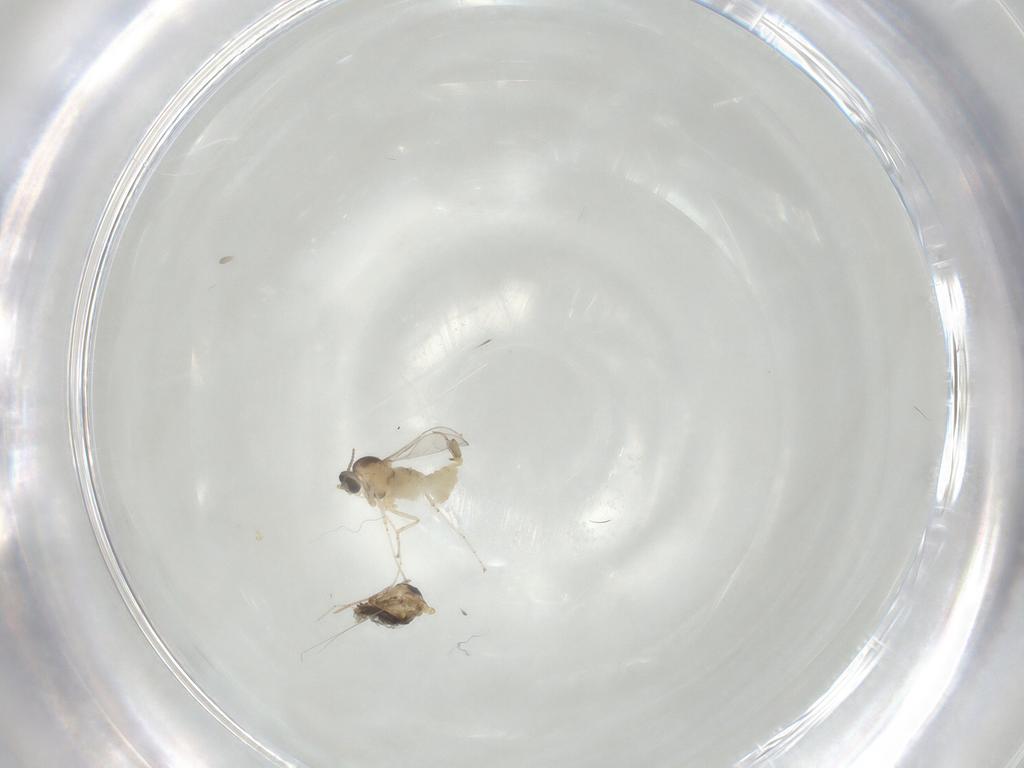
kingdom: Animalia
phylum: Arthropoda
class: Insecta
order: Diptera
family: Cecidomyiidae
